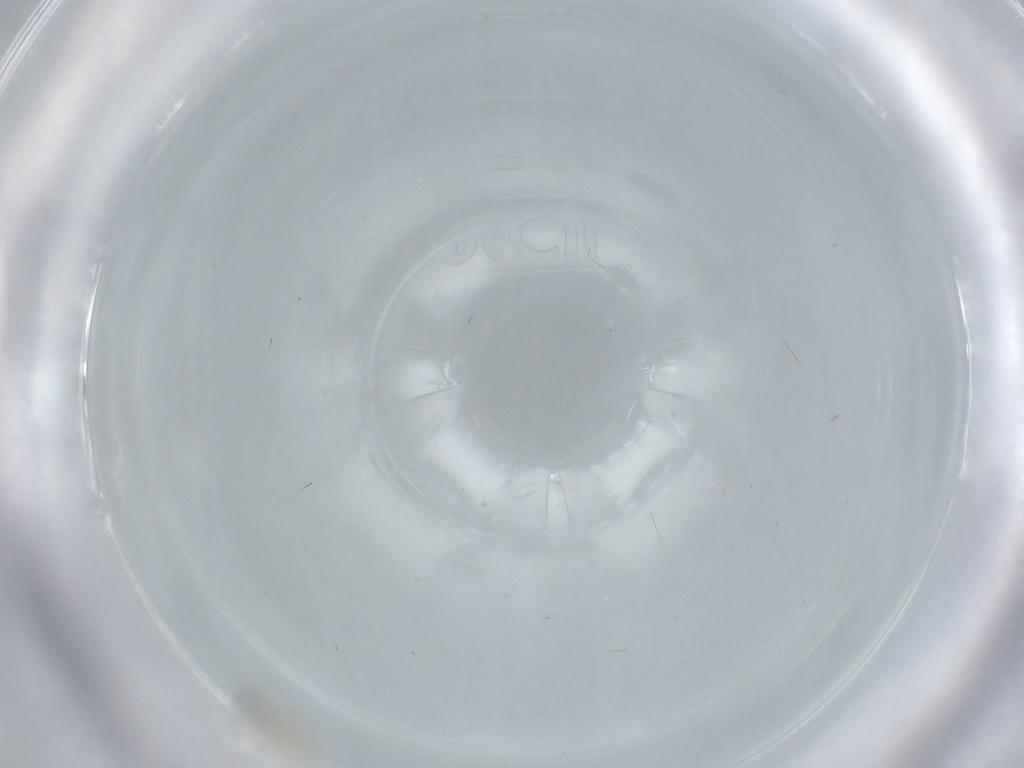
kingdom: Animalia
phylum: Arthropoda
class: Insecta
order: Diptera
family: Cecidomyiidae
